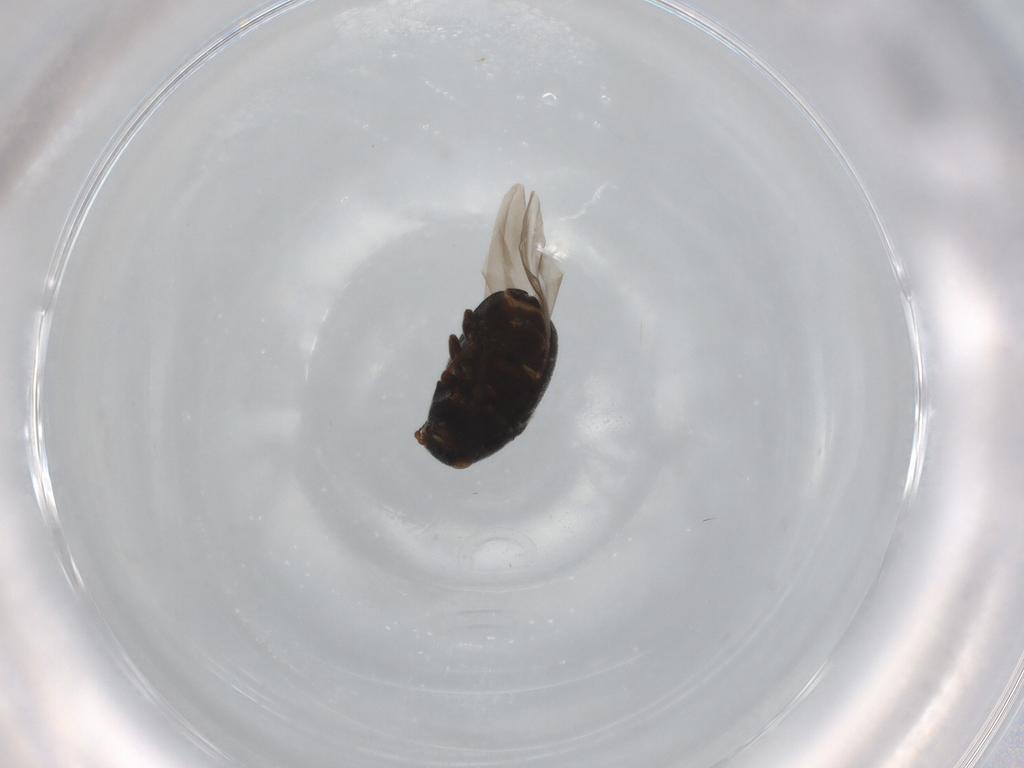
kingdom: Animalia
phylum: Arthropoda
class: Insecta
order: Coleoptera
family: Anthribidae
